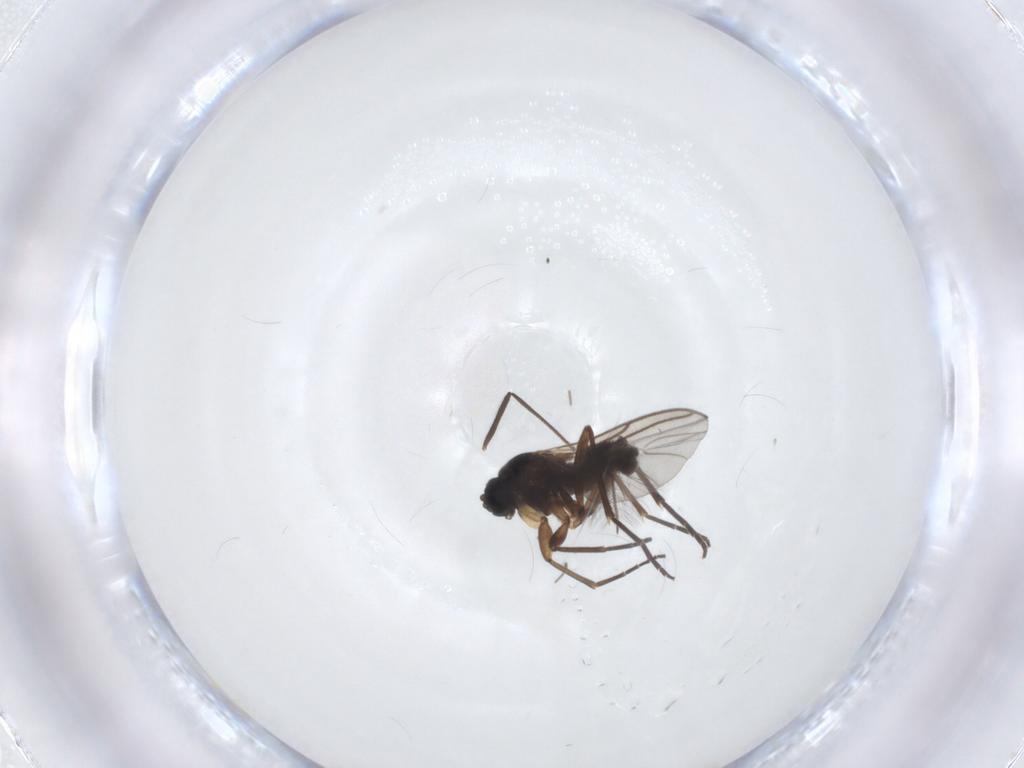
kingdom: Animalia
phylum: Arthropoda
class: Insecta
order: Diptera
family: Sciaridae
